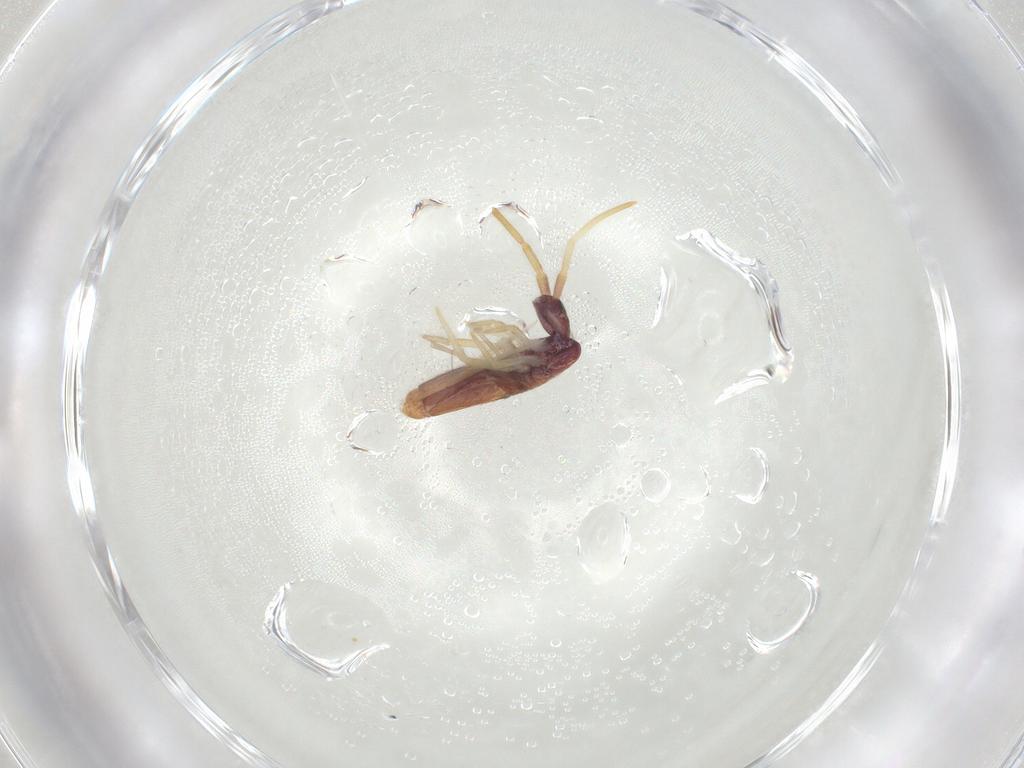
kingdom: Animalia
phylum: Arthropoda
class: Collembola
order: Entomobryomorpha
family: Entomobryidae
